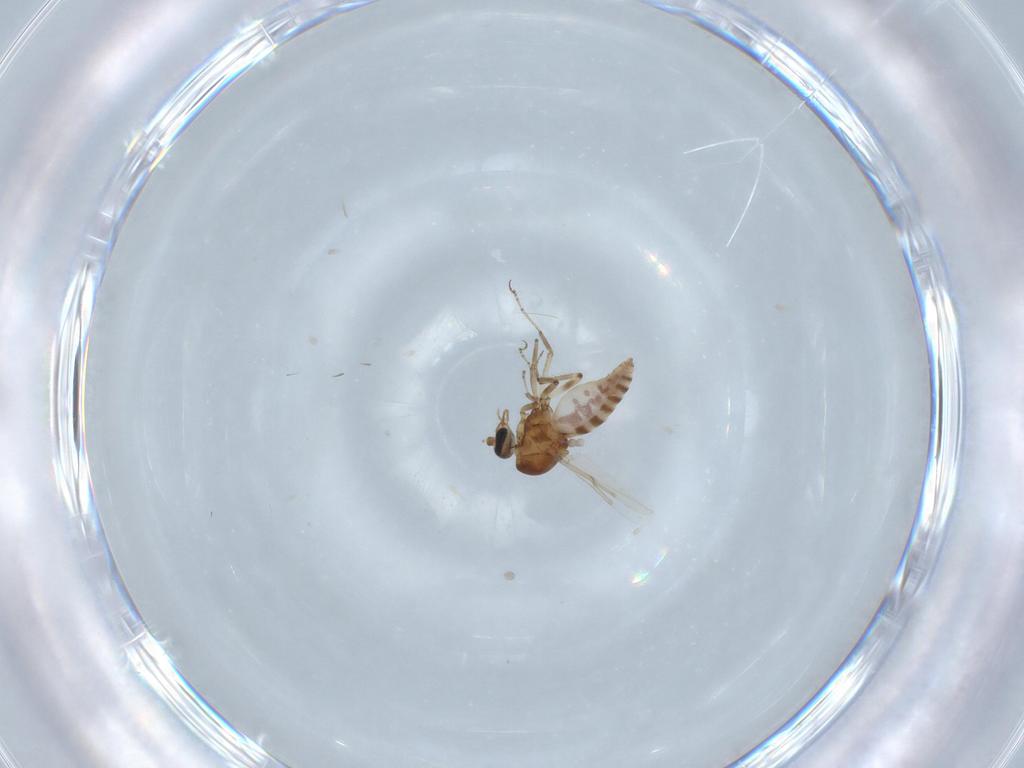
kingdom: Animalia
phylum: Arthropoda
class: Insecta
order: Diptera
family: Ceratopogonidae
